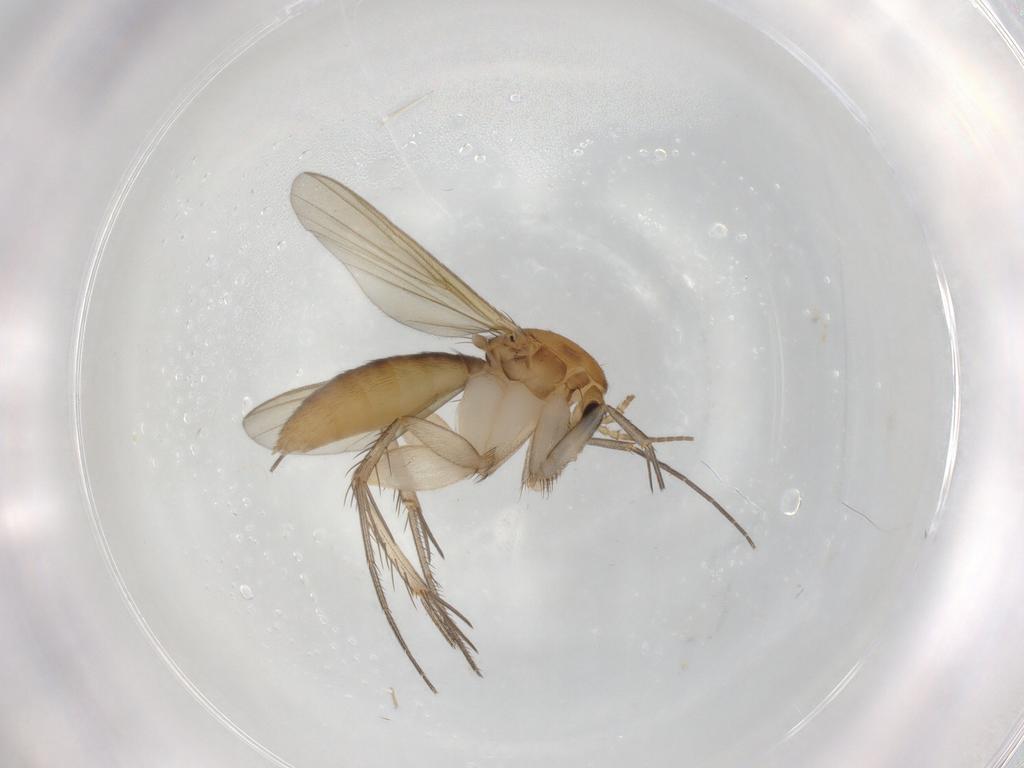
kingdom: Animalia
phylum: Arthropoda
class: Insecta
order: Diptera
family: Mycetophilidae
